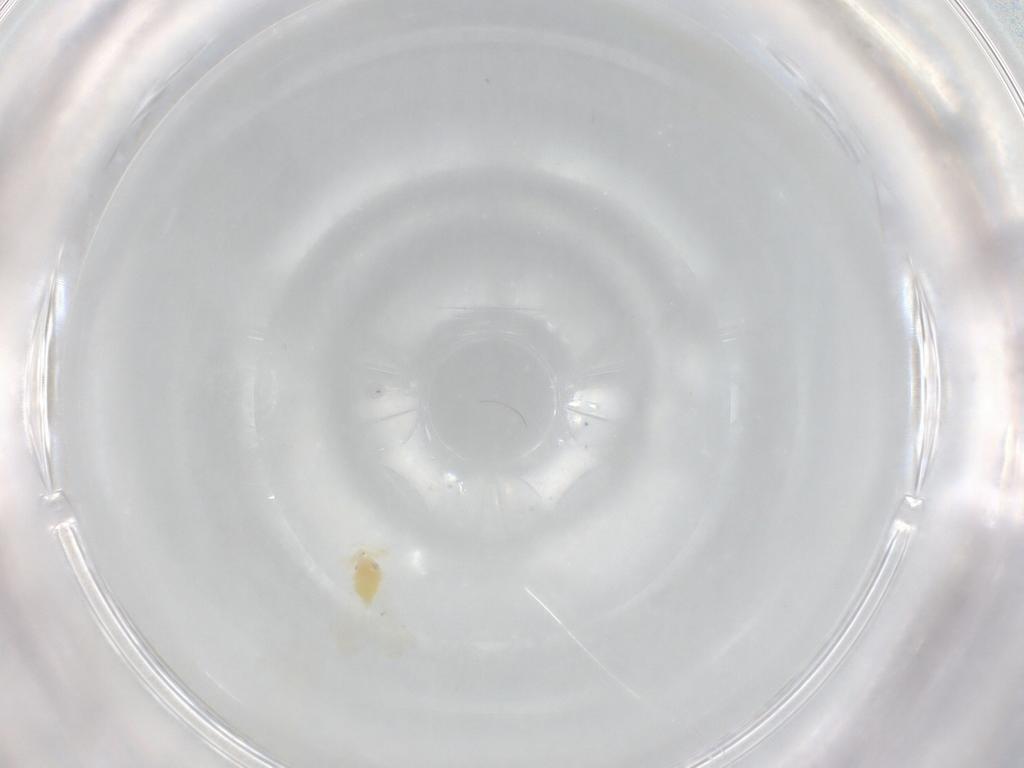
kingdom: Animalia
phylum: Arthropoda
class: Insecta
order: Hemiptera
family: Aleyrodidae
